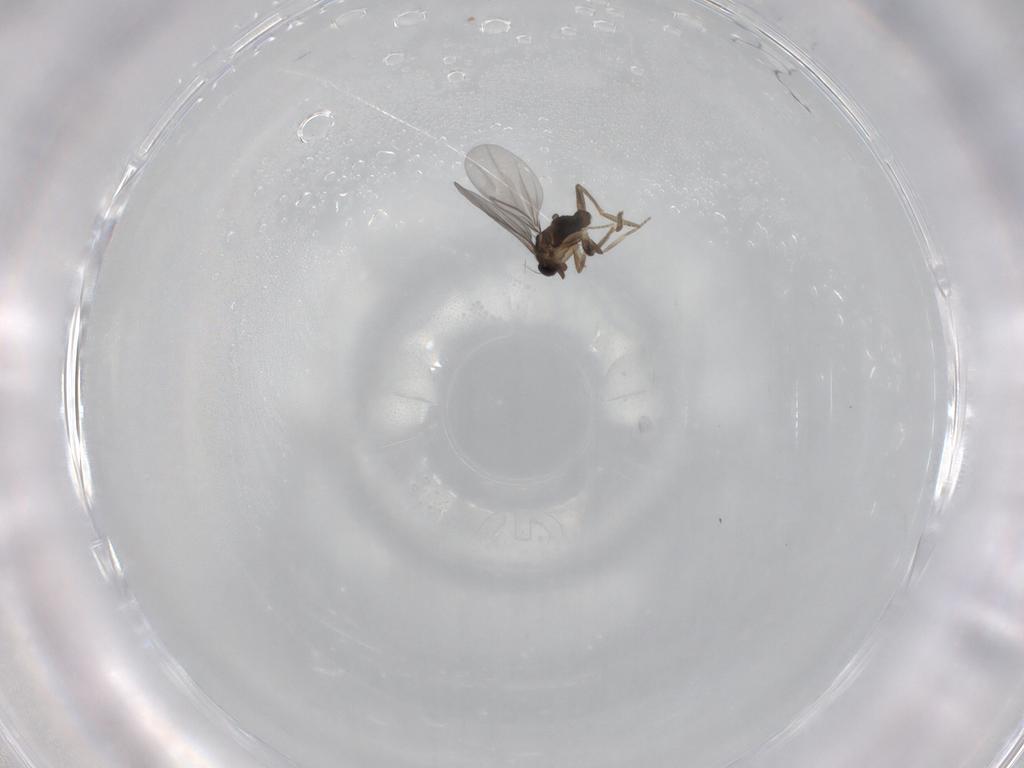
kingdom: Animalia
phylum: Arthropoda
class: Insecta
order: Diptera
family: Chironomidae
